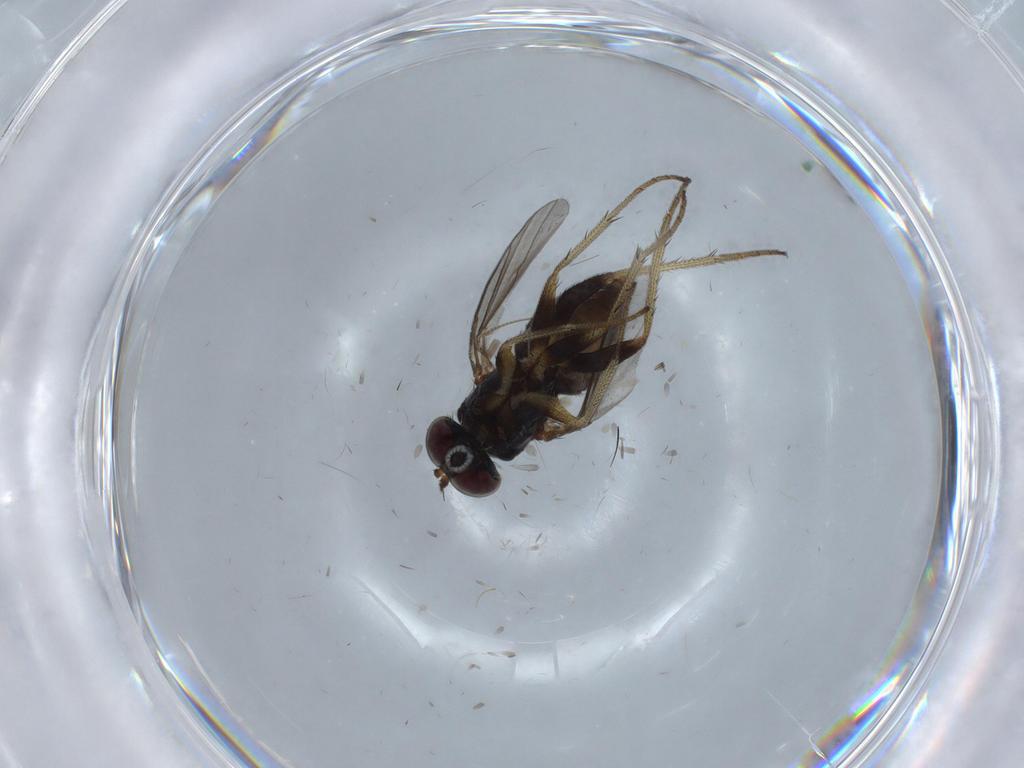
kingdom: Animalia
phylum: Arthropoda
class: Insecta
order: Diptera
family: Dolichopodidae
